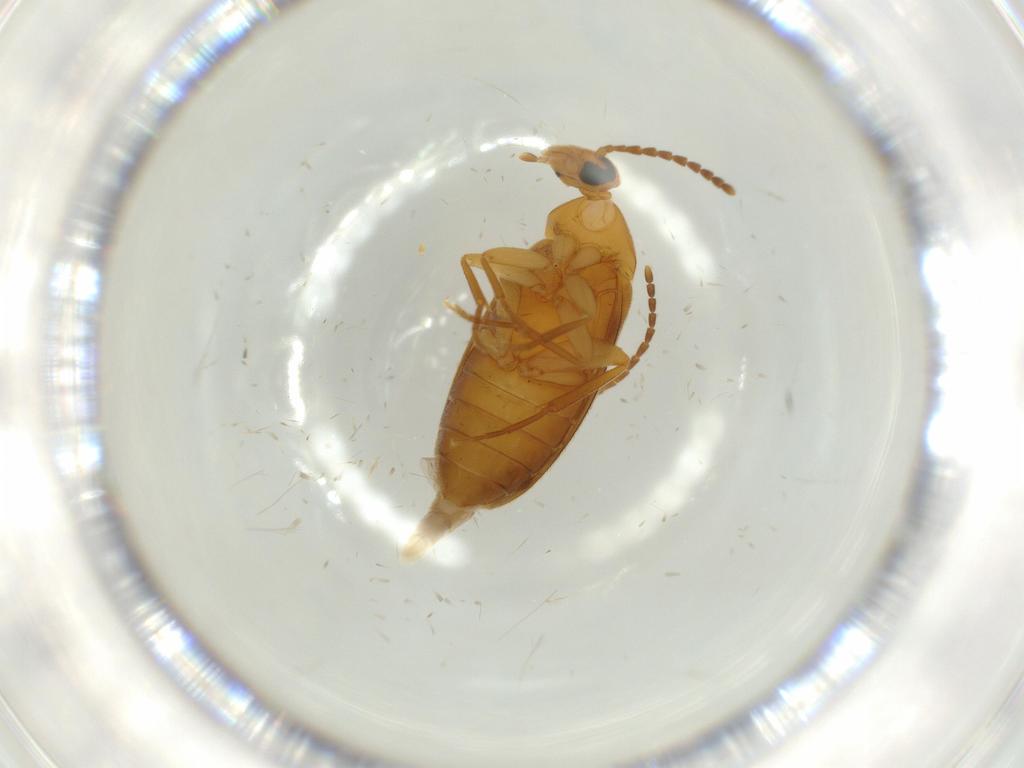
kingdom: Animalia
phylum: Arthropoda
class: Insecta
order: Coleoptera
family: Scraptiidae
